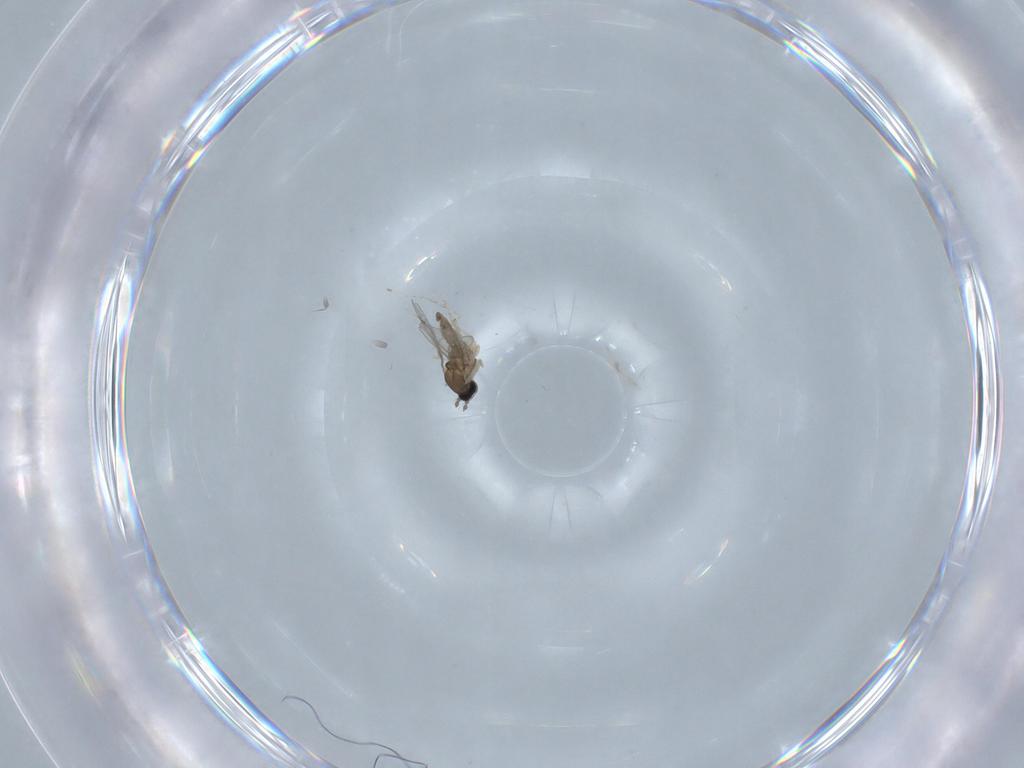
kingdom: Animalia
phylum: Arthropoda
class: Insecta
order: Diptera
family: Cecidomyiidae
